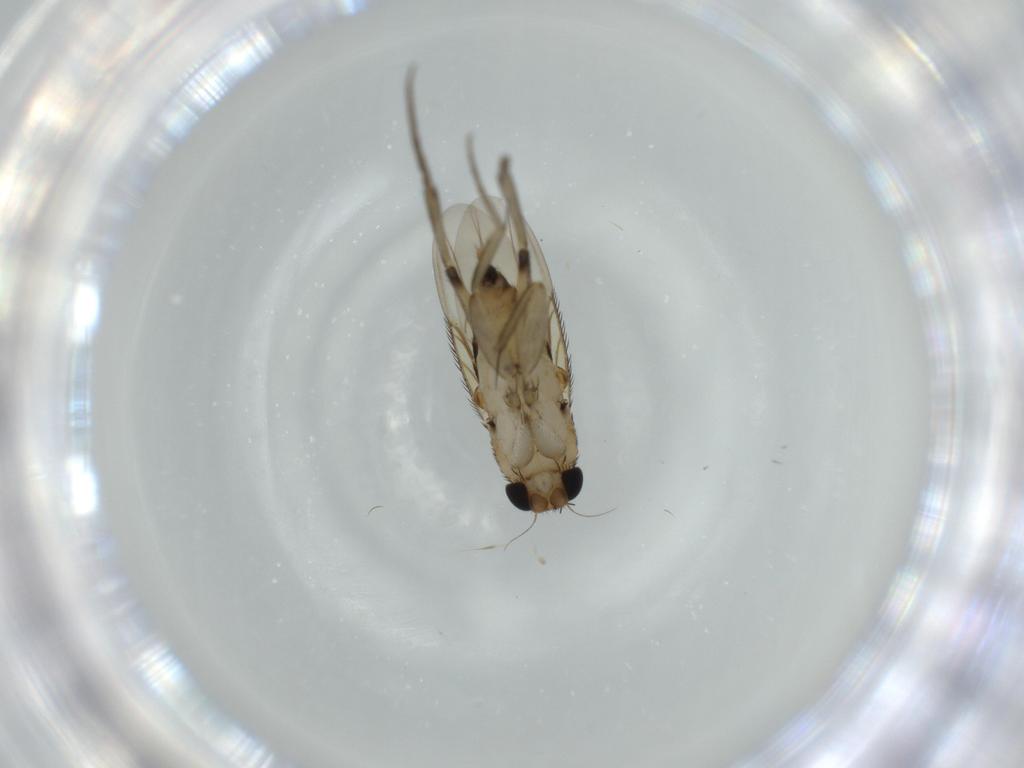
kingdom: Animalia
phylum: Arthropoda
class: Insecta
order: Diptera
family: Phoridae
